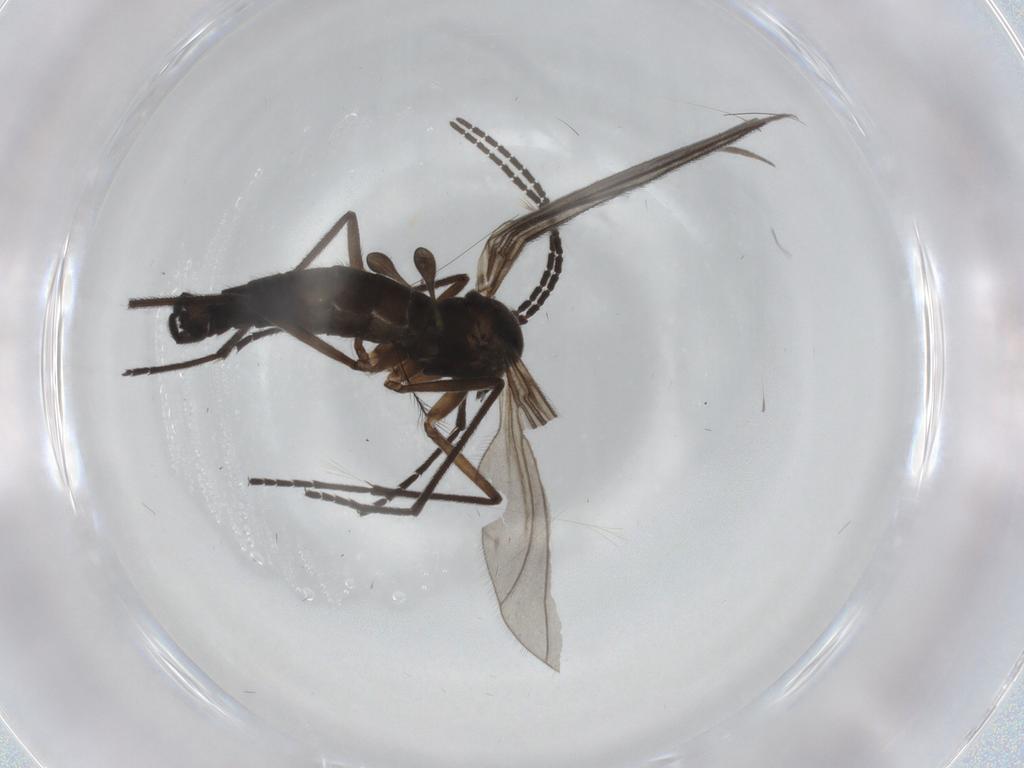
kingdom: Animalia
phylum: Arthropoda
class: Insecta
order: Diptera
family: Sciaridae
